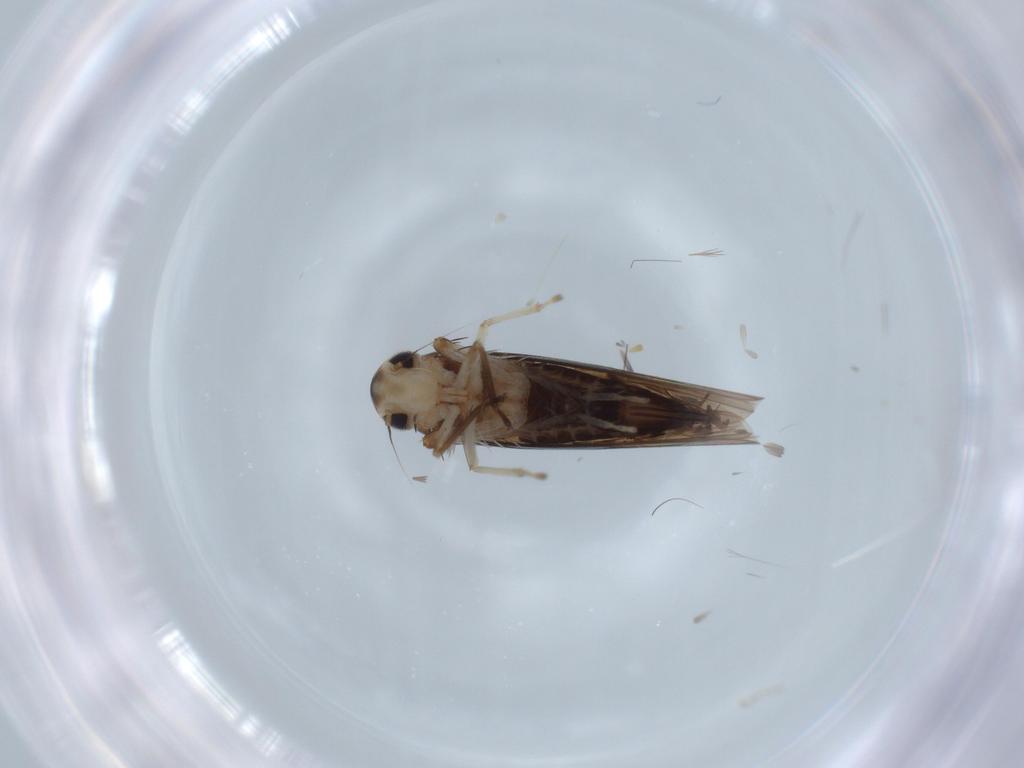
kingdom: Animalia
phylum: Arthropoda
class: Insecta
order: Hemiptera
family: Cicadellidae
